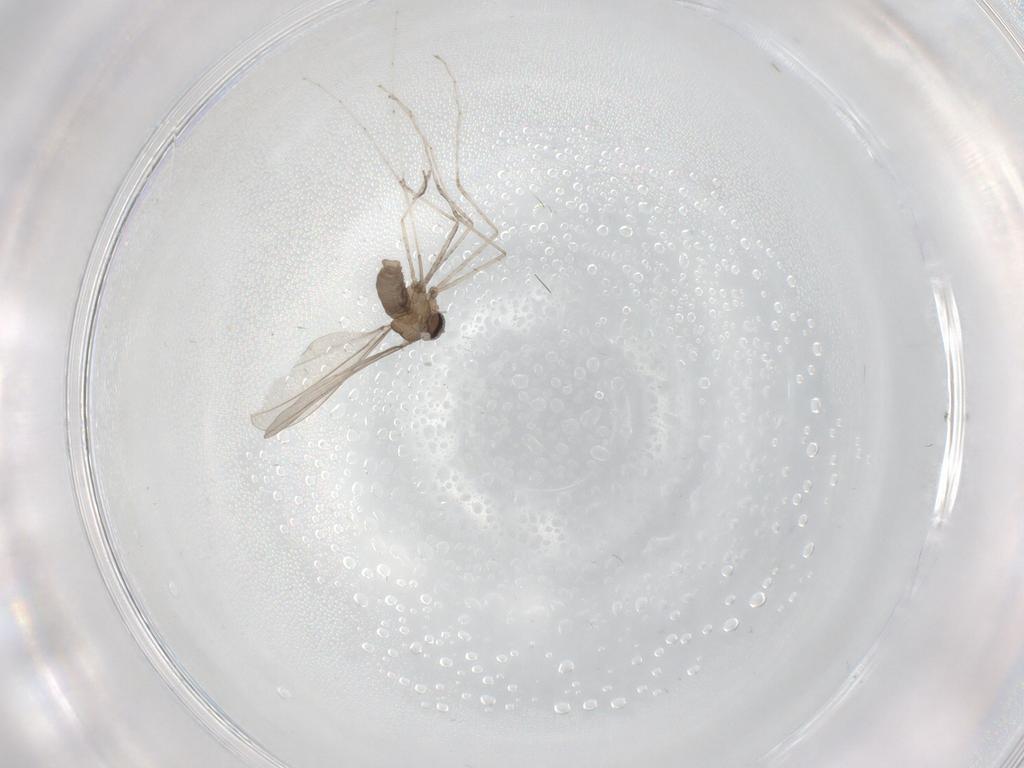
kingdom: Animalia
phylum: Arthropoda
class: Insecta
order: Diptera
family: Cecidomyiidae
